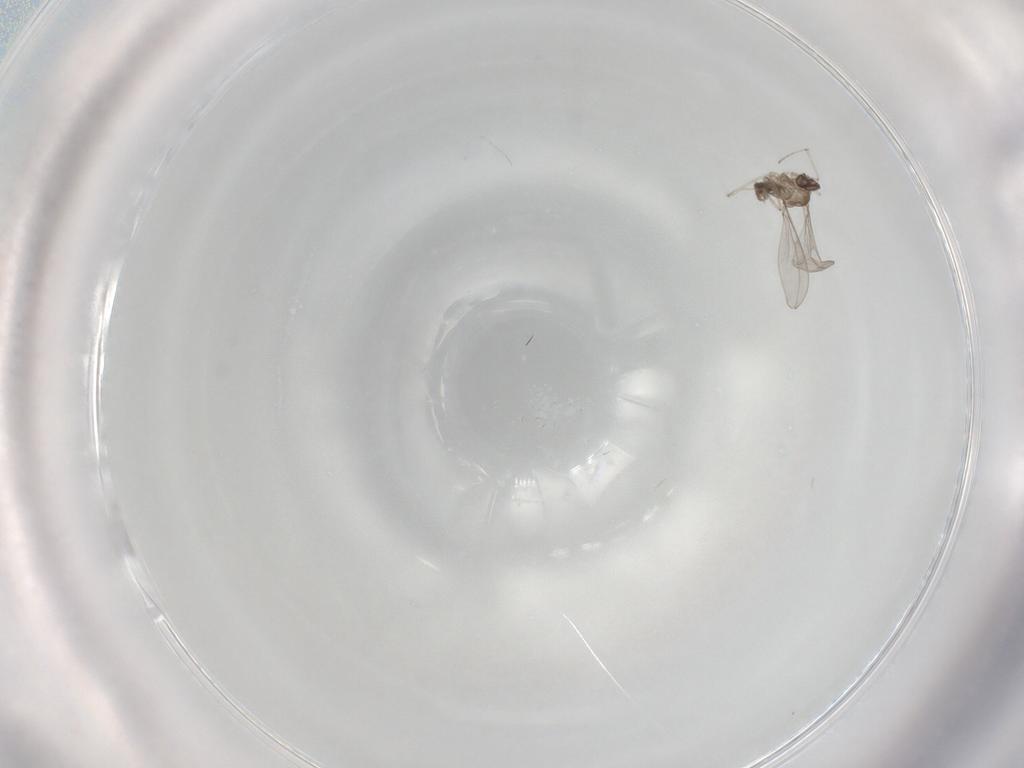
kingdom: Animalia
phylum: Arthropoda
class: Insecta
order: Diptera
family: Sciaridae
